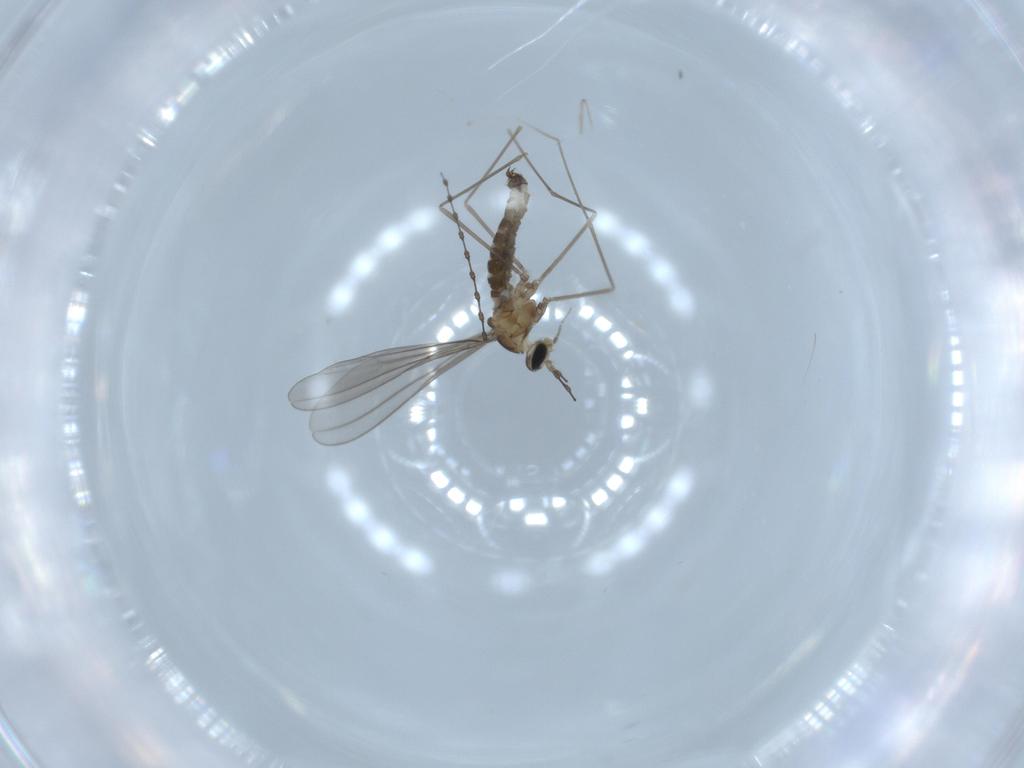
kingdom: Animalia
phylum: Arthropoda
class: Insecta
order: Diptera
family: Cecidomyiidae
